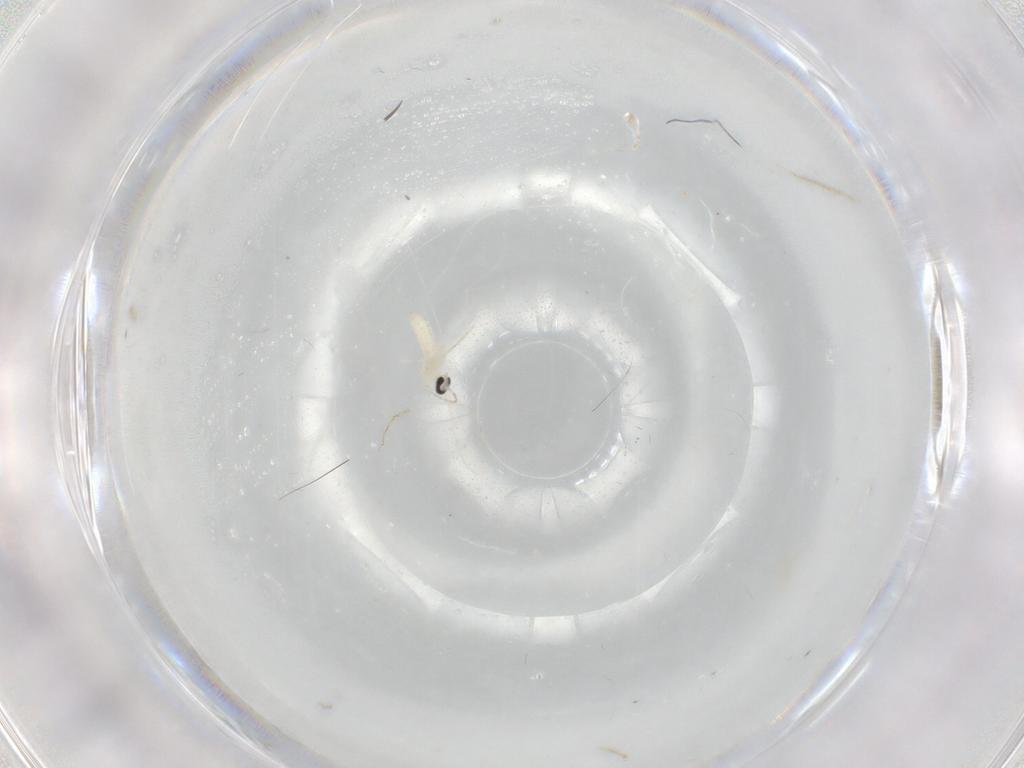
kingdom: Animalia
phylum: Arthropoda
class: Insecta
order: Diptera
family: Cecidomyiidae
